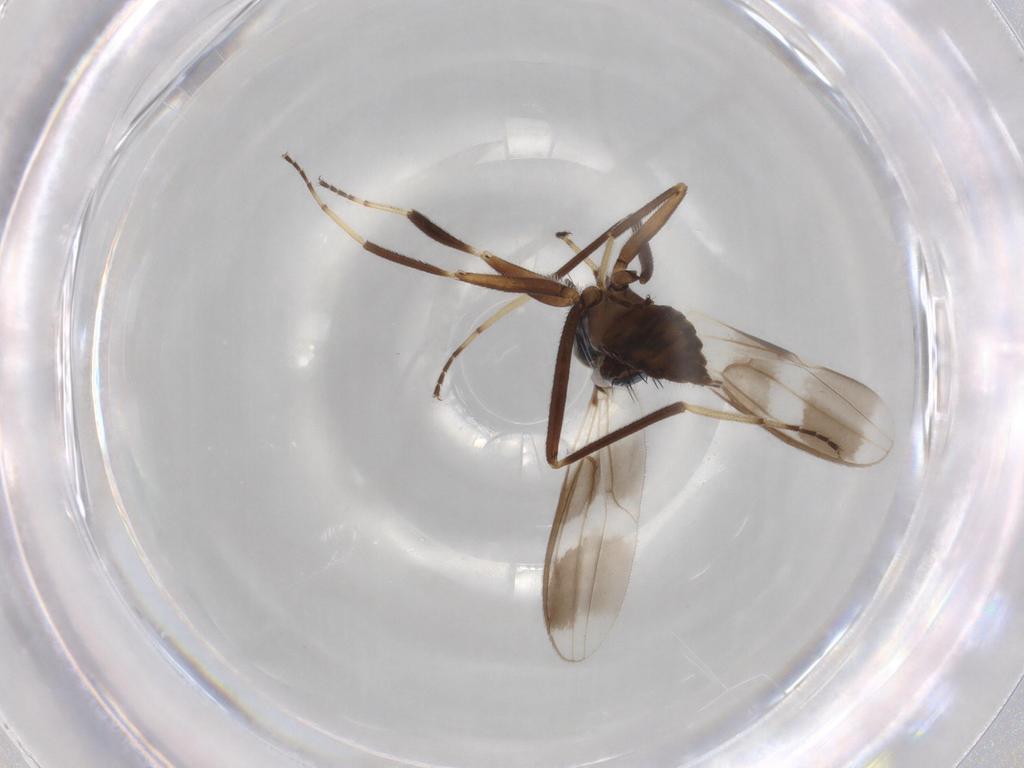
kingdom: Animalia
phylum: Arthropoda
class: Insecta
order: Diptera
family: Hybotidae
